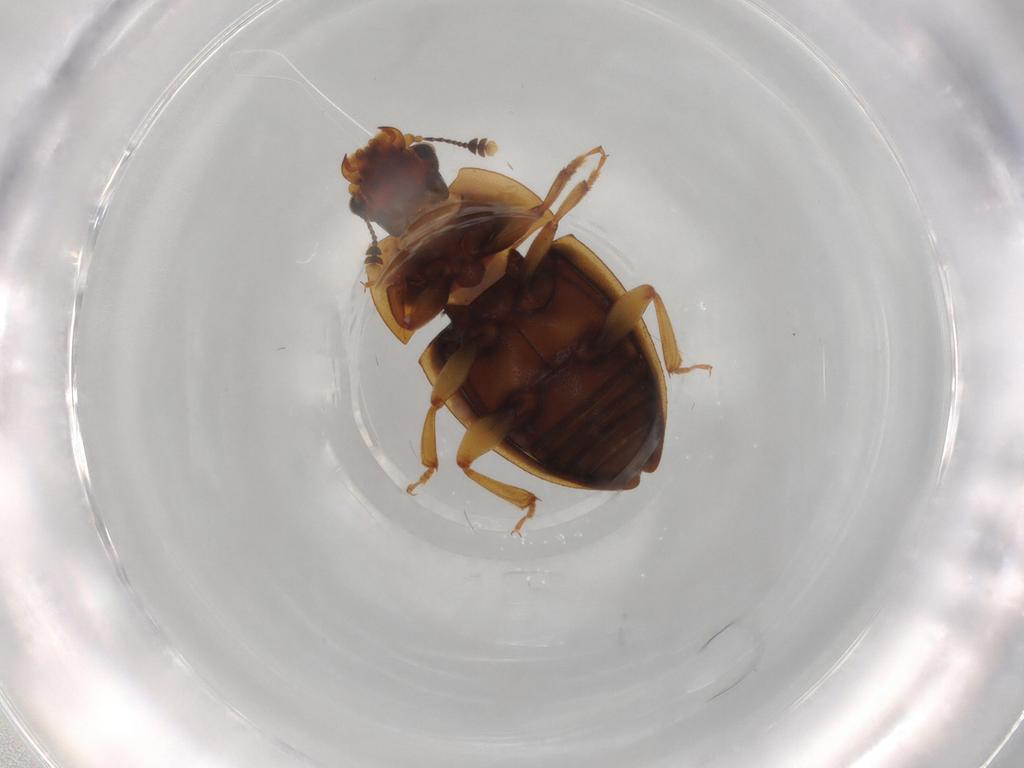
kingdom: Animalia
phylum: Arthropoda
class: Insecta
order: Coleoptera
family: Nitidulidae
